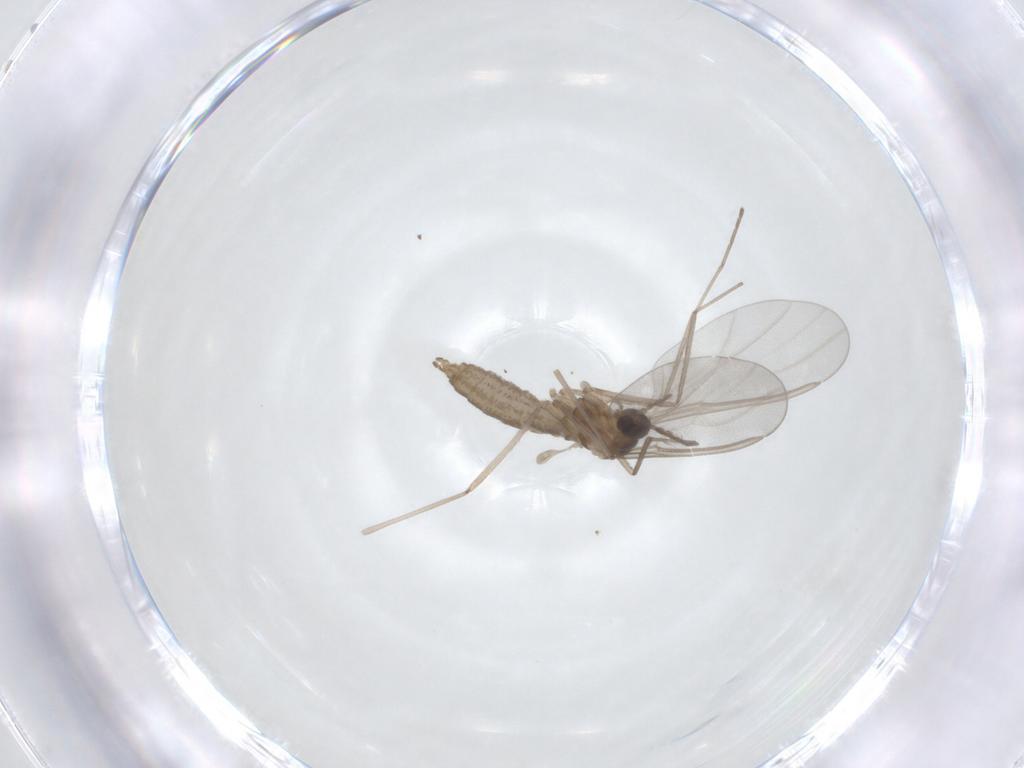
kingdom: Animalia
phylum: Arthropoda
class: Insecta
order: Diptera
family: Cecidomyiidae
